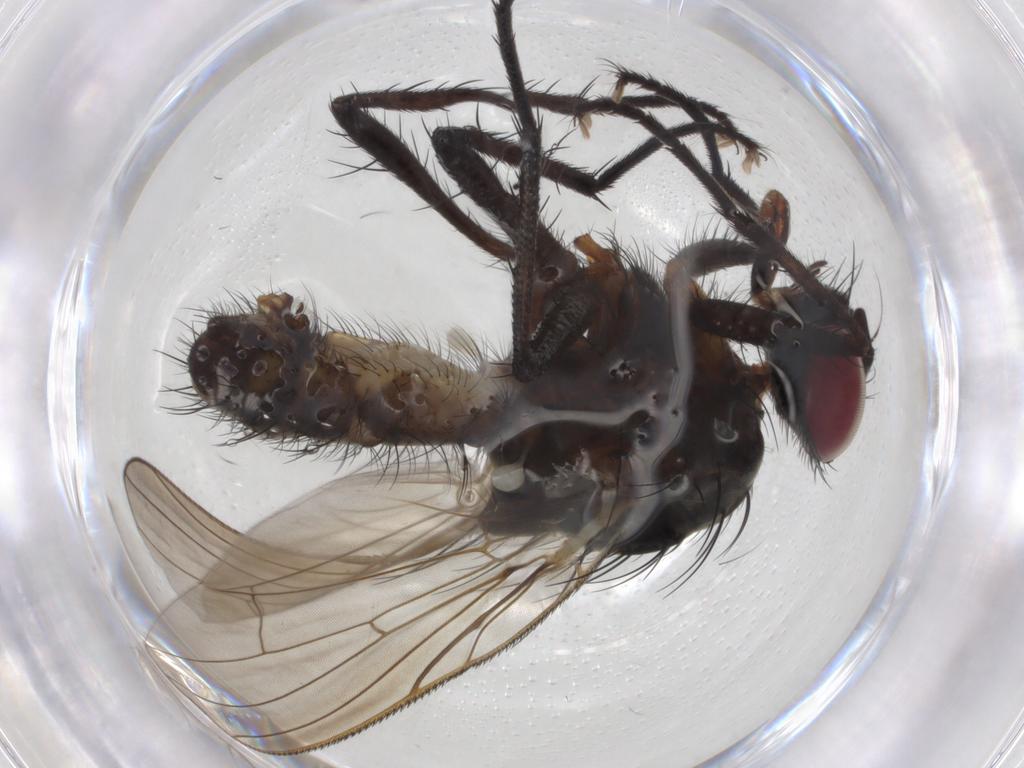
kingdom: Animalia
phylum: Arthropoda
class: Insecta
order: Diptera
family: Anthomyiidae
